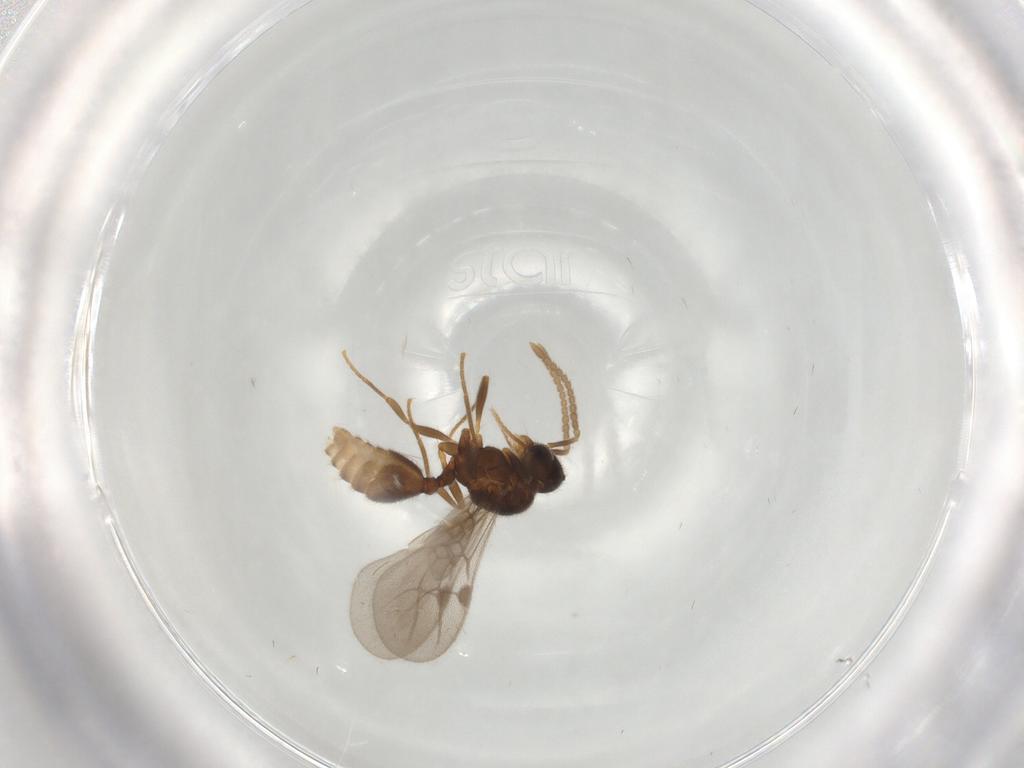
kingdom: Animalia
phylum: Arthropoda
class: Insecta
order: Hymenoptera
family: Formicidae
